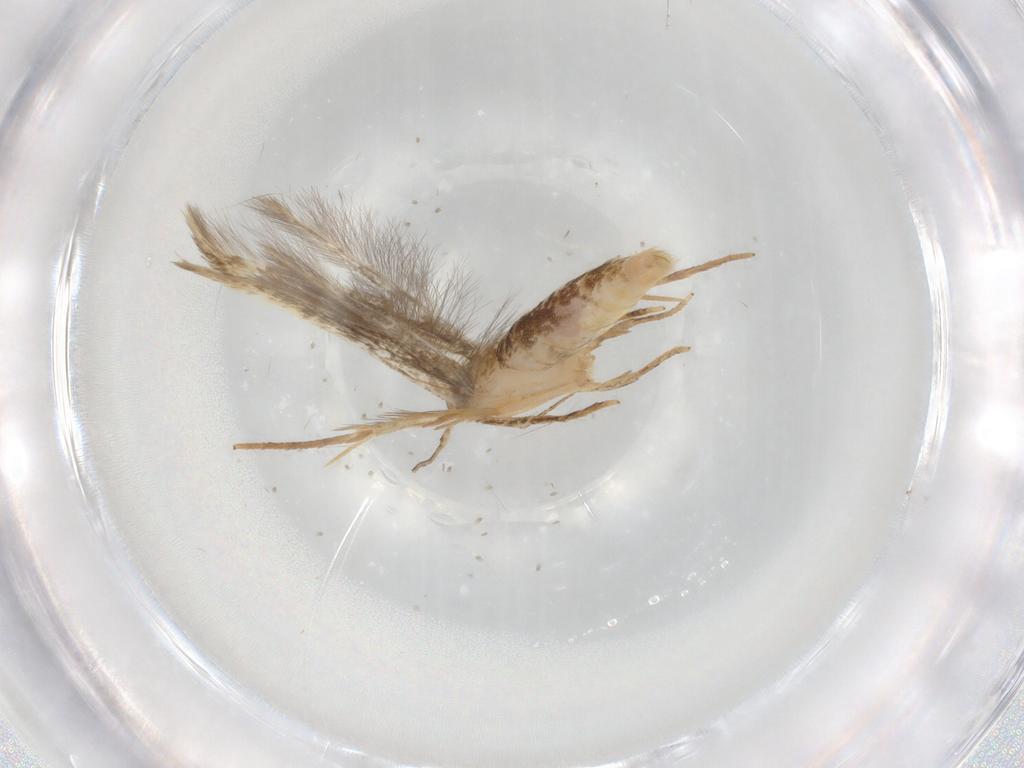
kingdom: Animalia
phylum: Arthropoda
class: Insecta
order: Lepidoptera
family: Gelechiidae
